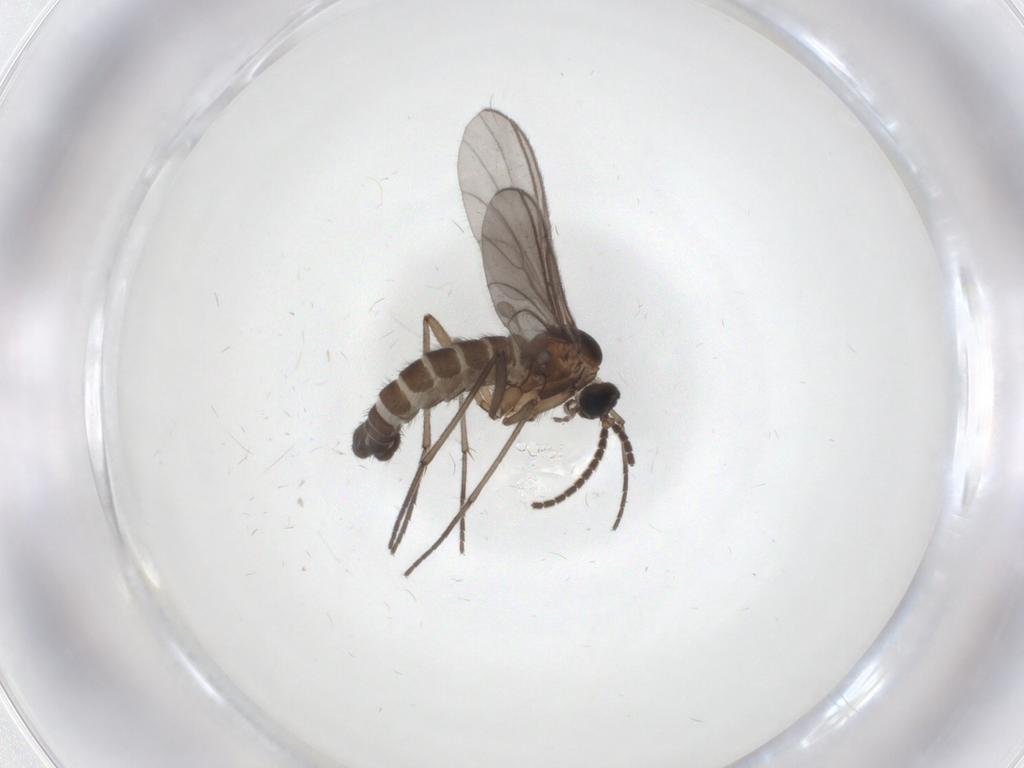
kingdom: Animalia
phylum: Arthropoda
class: Insecta
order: Diptera
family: Sciaridae
